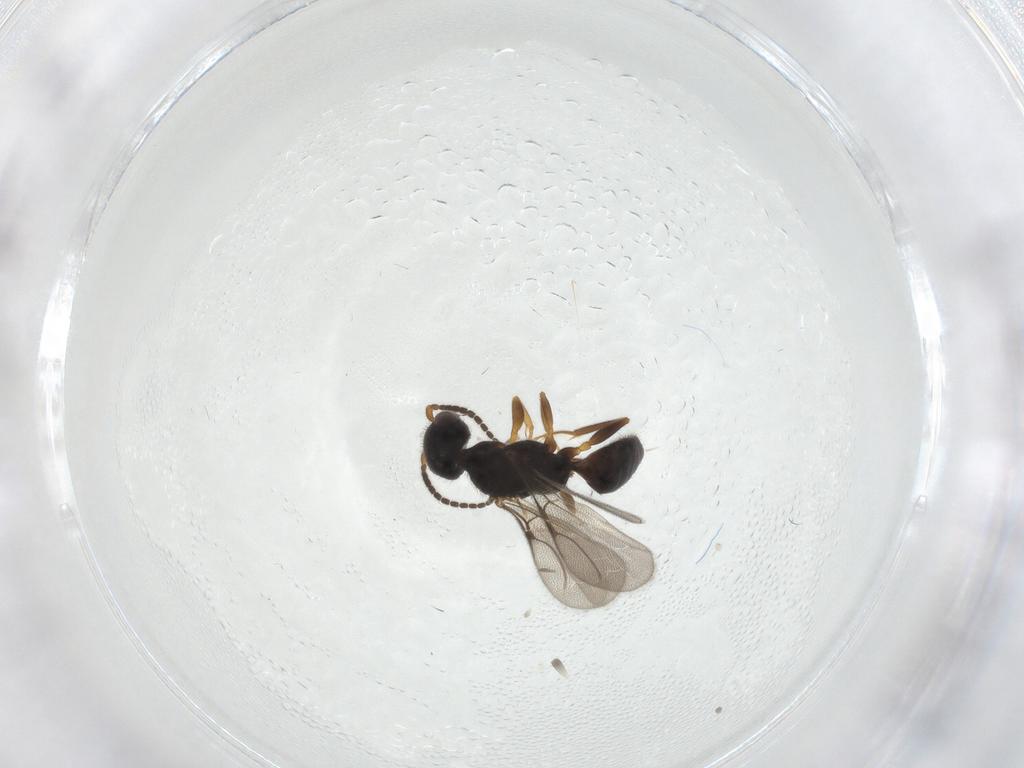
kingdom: Animalia
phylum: Arthropoda
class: Insecta
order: Hymenoptera
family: Bethylidae
